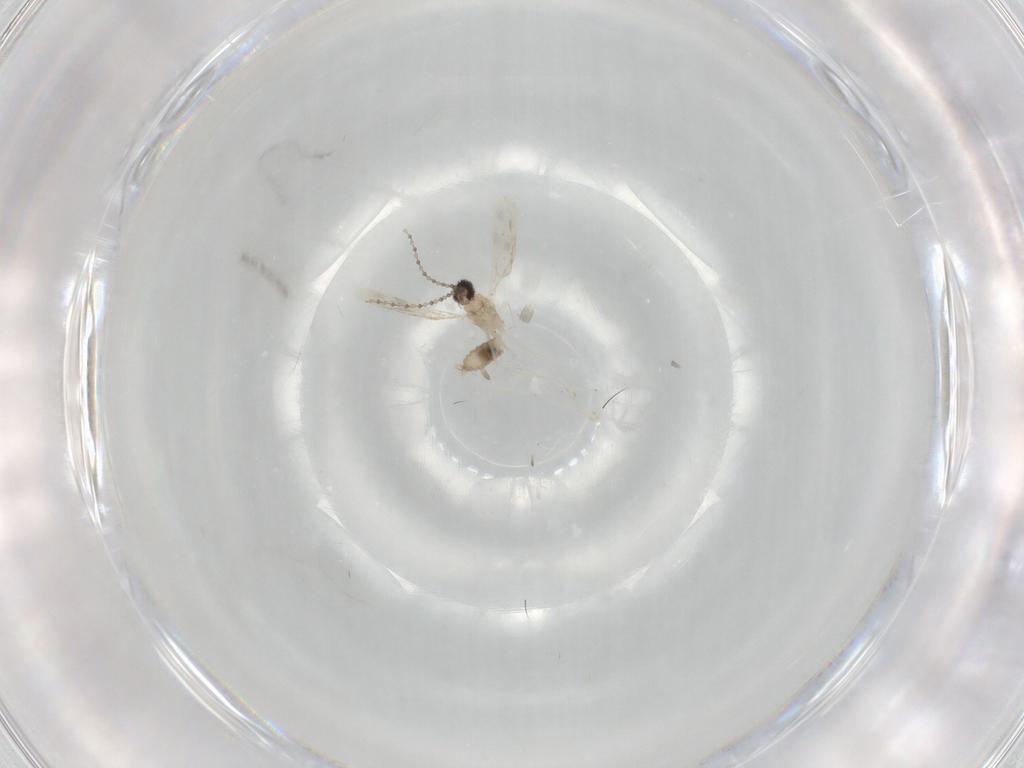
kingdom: Animalia
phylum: Arthropoda
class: Insecta
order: Diptera
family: Cecidomyiidae
